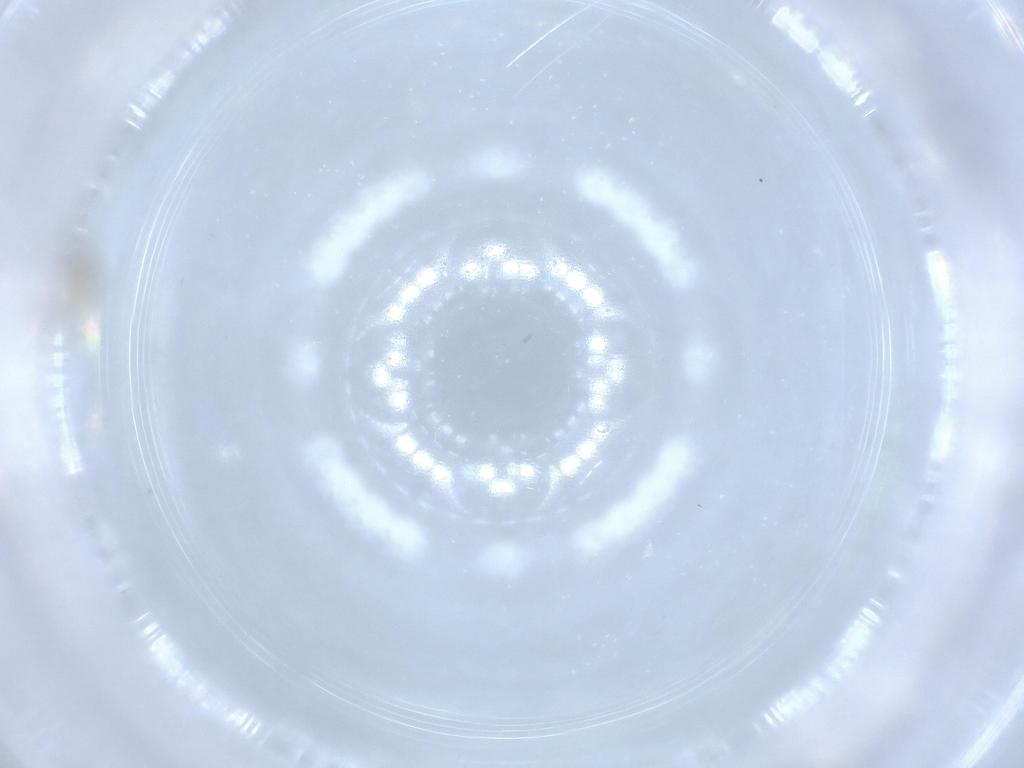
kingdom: Animalia
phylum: Arthropoda
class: Insecta
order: Hymenoptera
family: Formicidae
